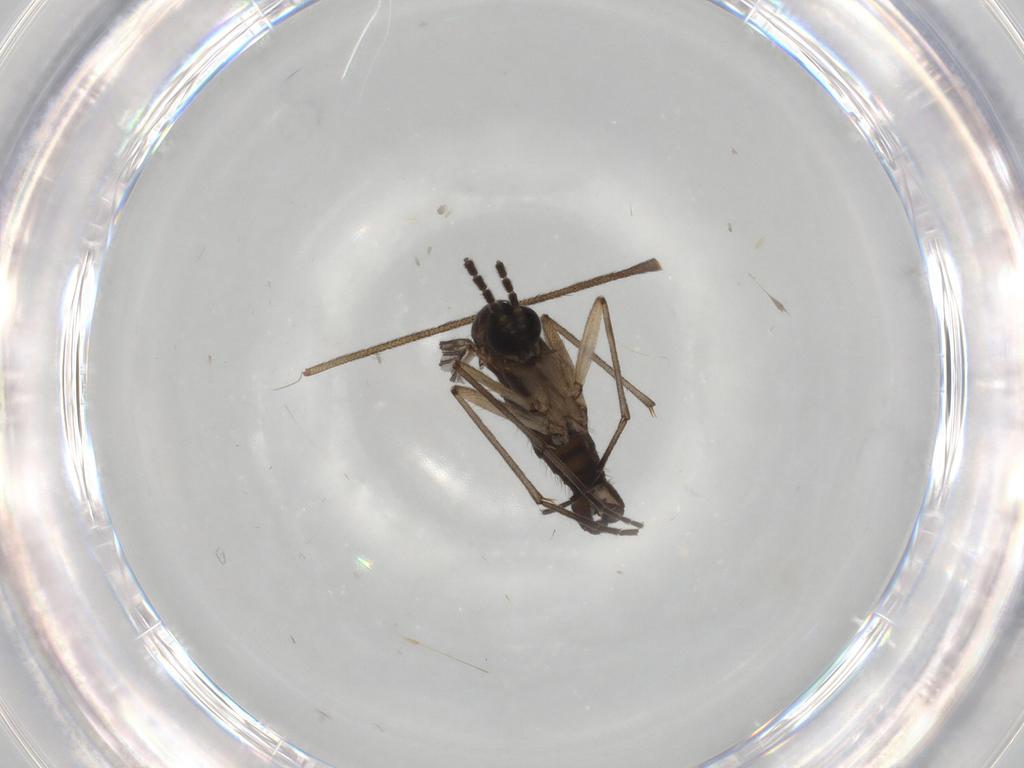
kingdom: Animalia
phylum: Arthropoda
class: Insecta
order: Diptera
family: Sciaridae
